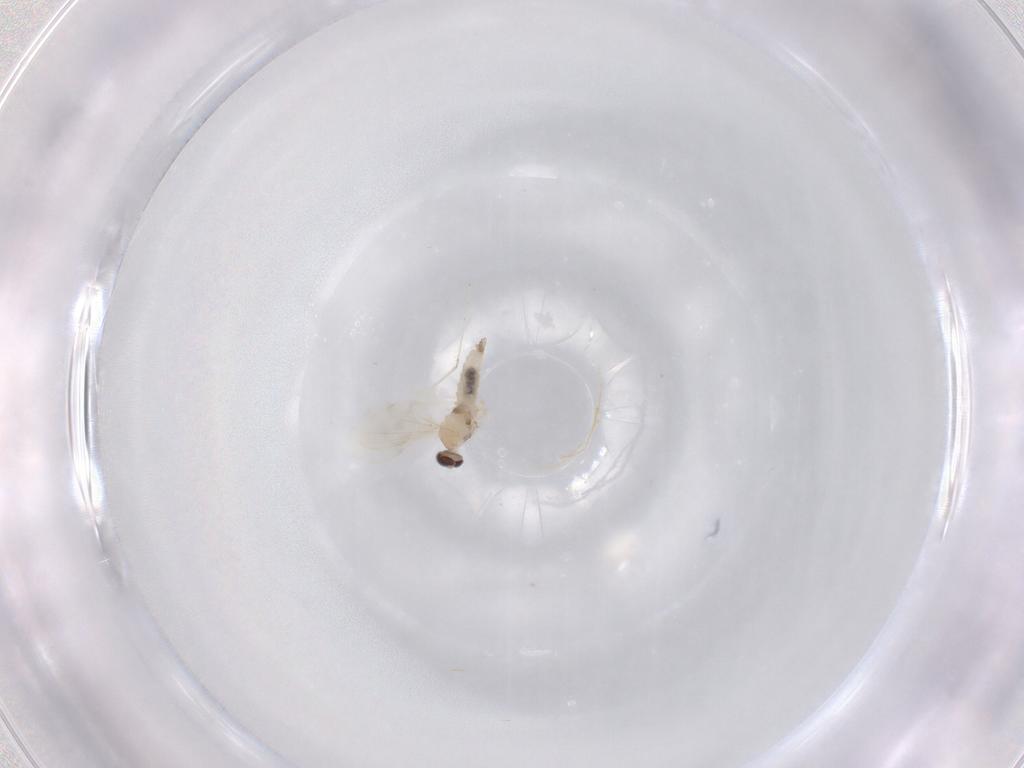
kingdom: Animalia
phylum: Arthropoda
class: Insecta
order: Diptera
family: Cecidomyiidae
